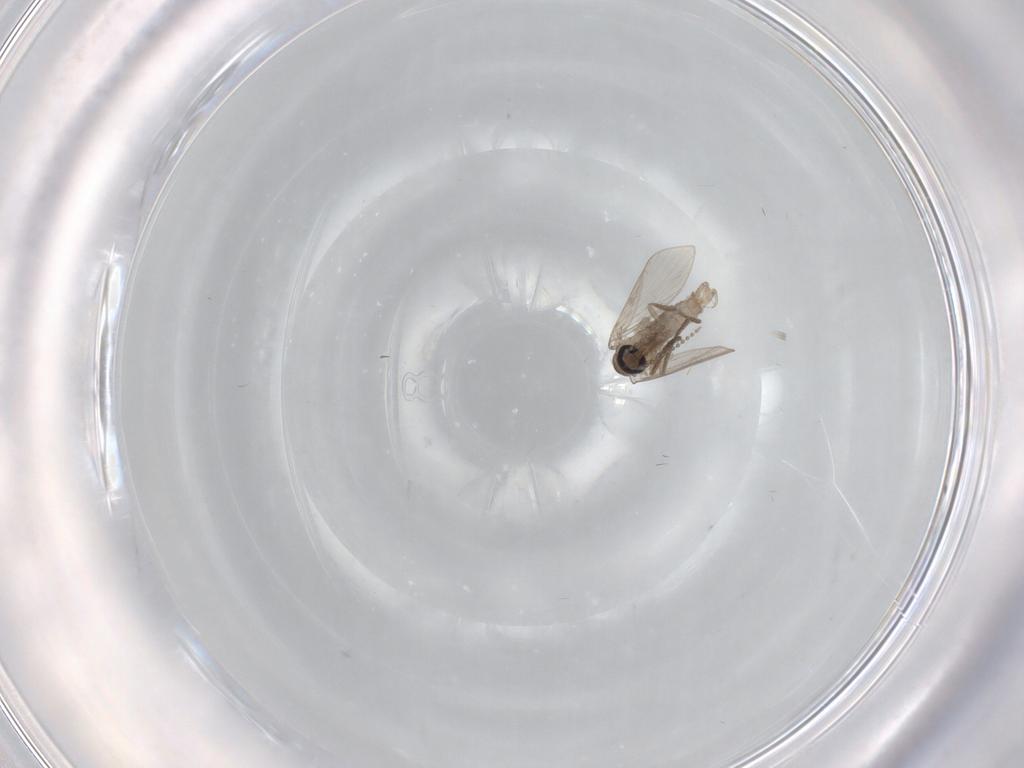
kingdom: Animalia
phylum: Arthropoda
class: Insecta
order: Diptera
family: Psychodidae
